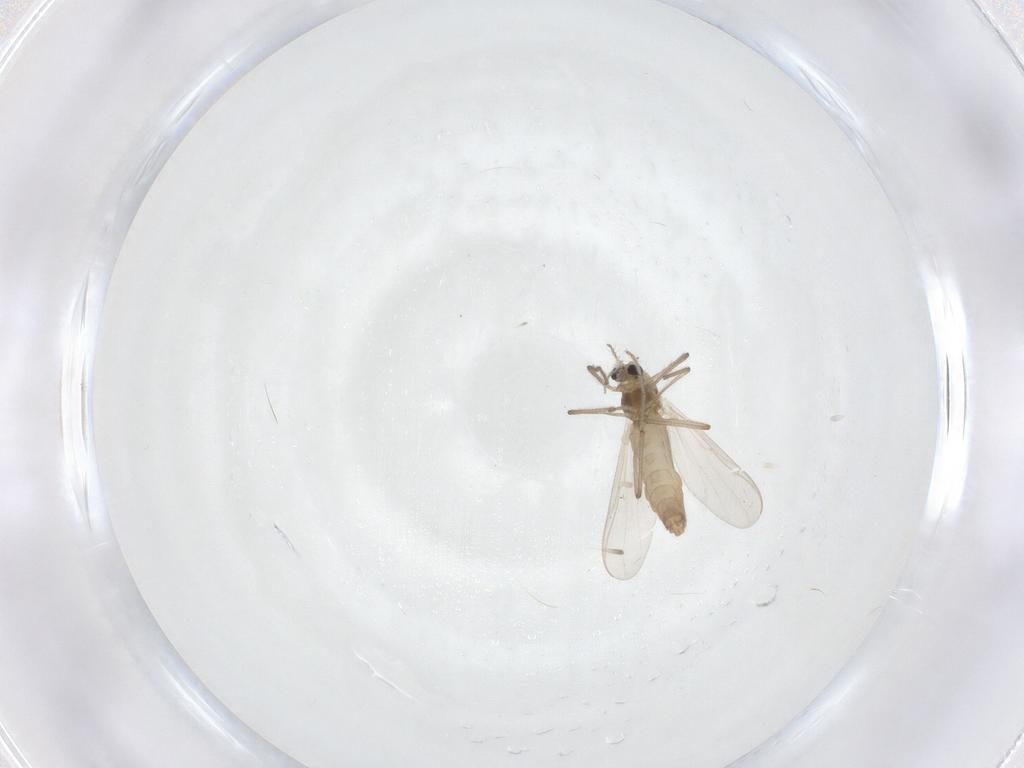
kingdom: Animalia
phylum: Arthropoda
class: Insecta
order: Diptera
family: Chironomidae
